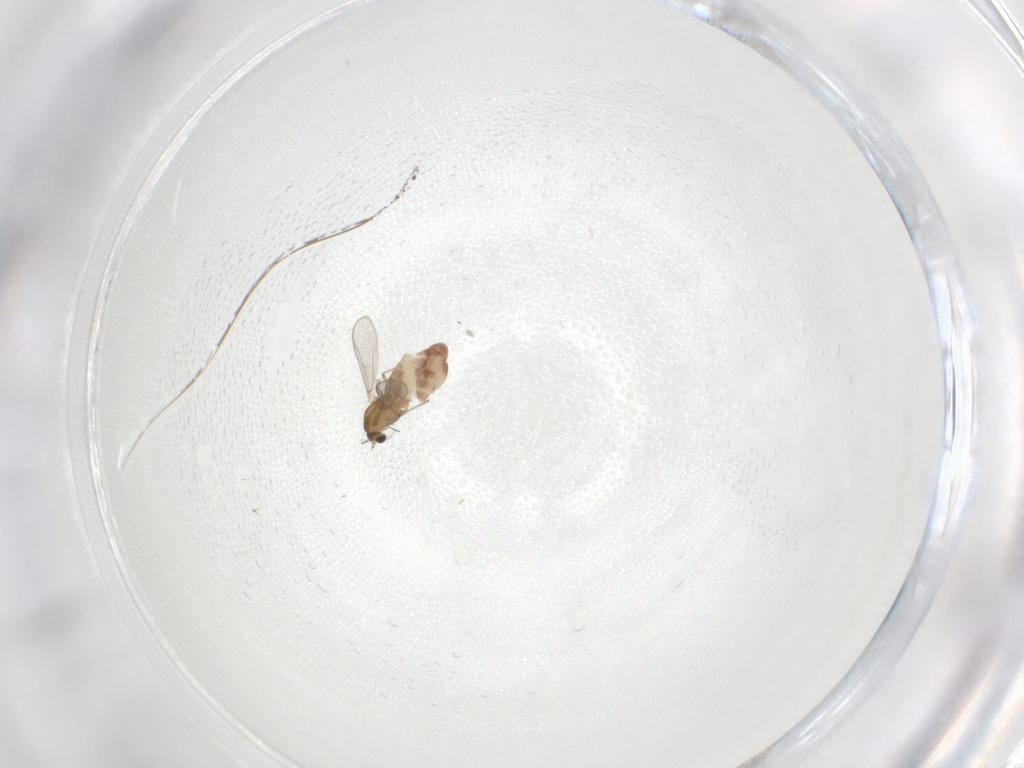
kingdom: Animalia
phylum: Arthropoda
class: Insecta
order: Diptera
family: Chironomidae
